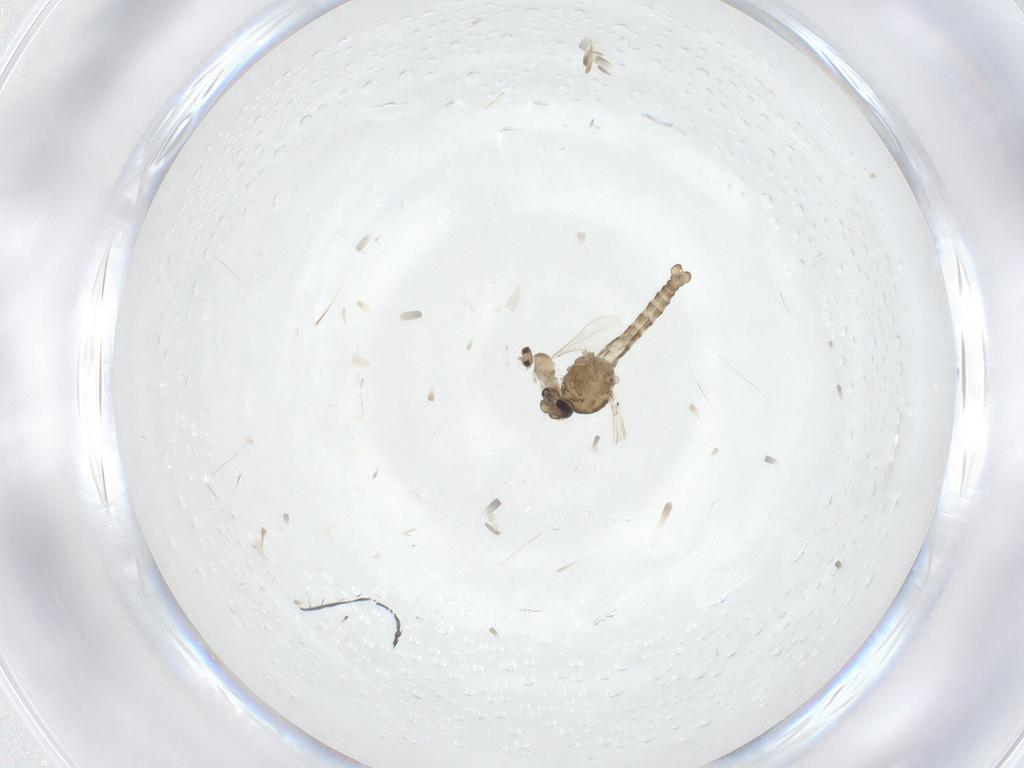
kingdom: Animalia
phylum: Arthropoda
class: Insecta
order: Diptera
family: Ceratopogonidae
